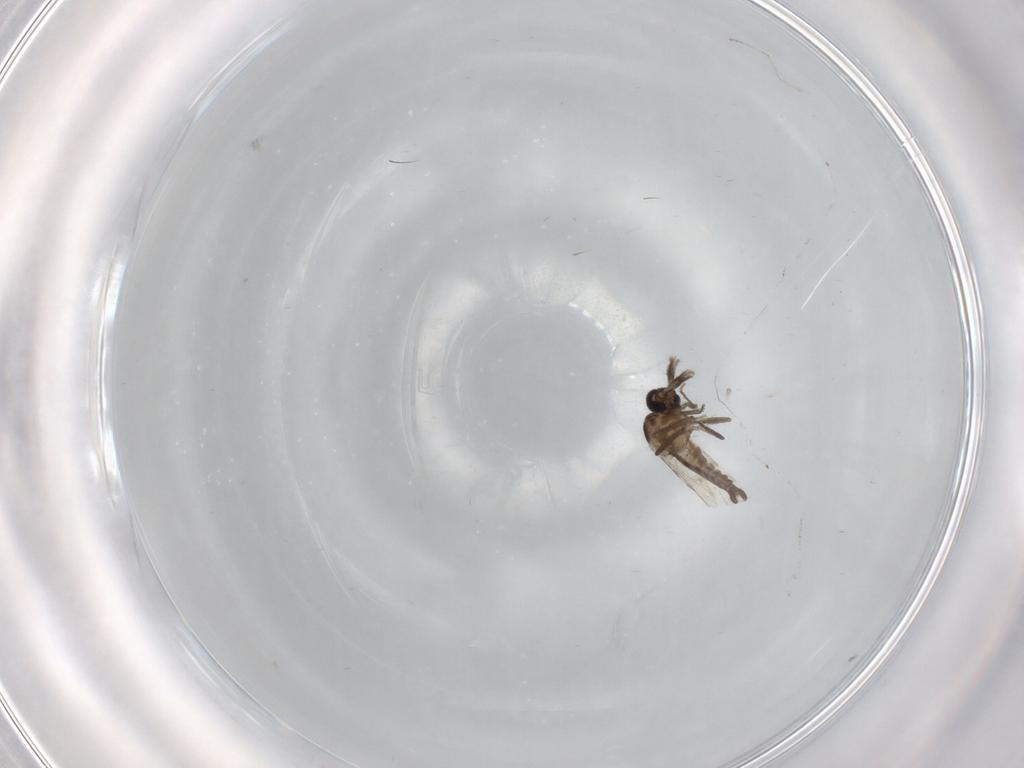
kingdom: Animalia
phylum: Arthropoda
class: Insecta
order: Diptera
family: Ceratopogonidae
